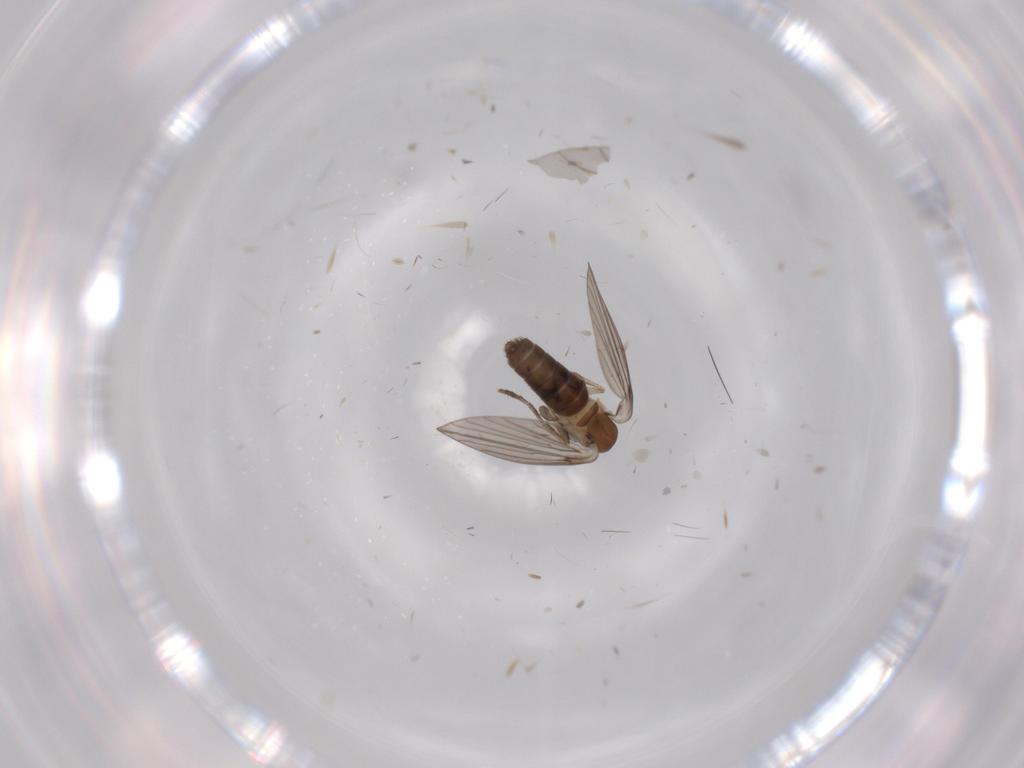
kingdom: Animalia
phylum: Arthropoda
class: Insecta
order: Diptera
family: Psychodidae
